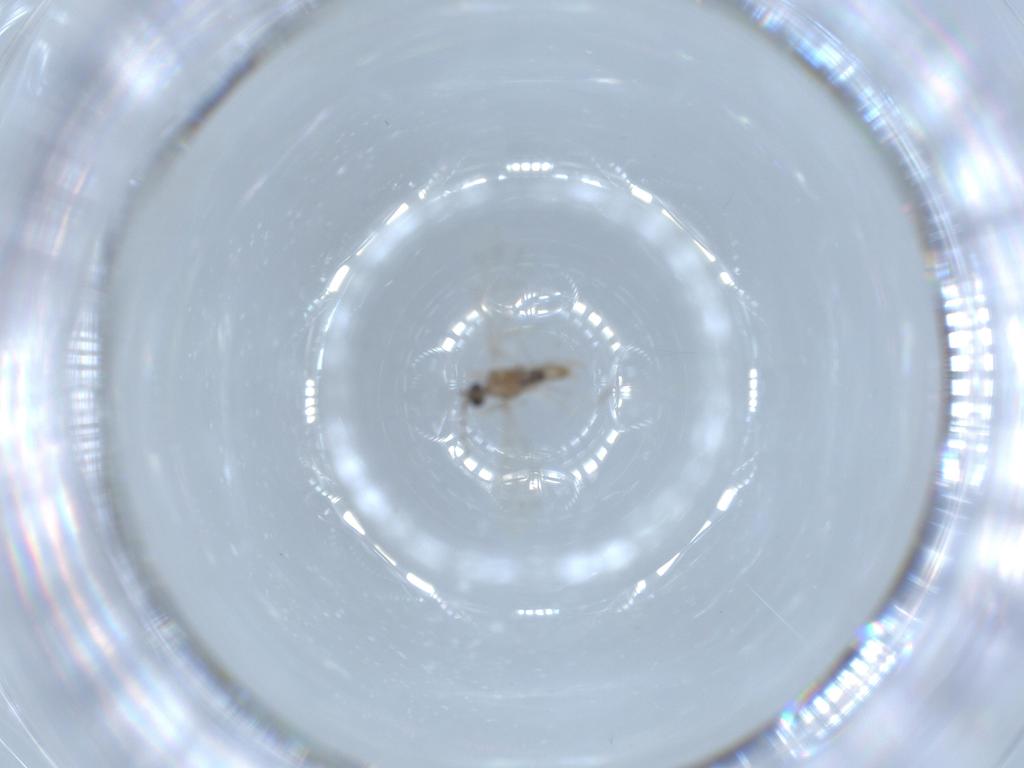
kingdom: Animalia
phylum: Arthropoda
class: Insecta
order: Diptera
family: Cecidomyiidae
